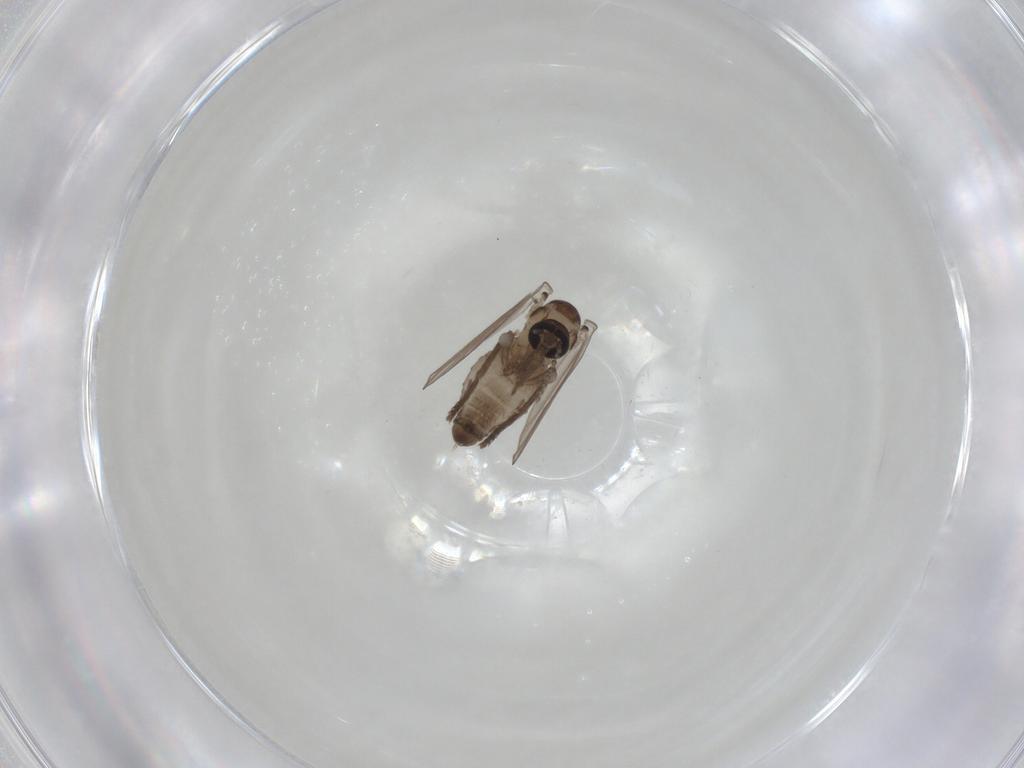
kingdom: Animalia
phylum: Arthropoda
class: Insecta
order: Diptera
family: Psychodidae
